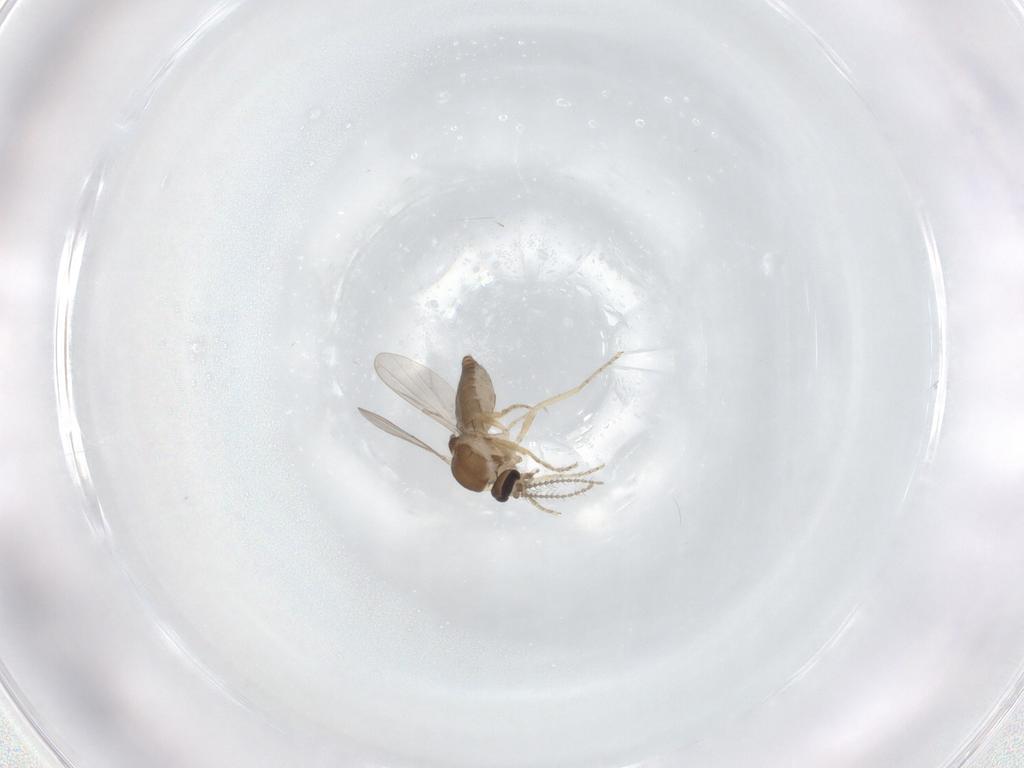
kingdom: Animalia
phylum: Arthropoda
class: Insecta
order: Diptera
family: Ceratopogonidae
